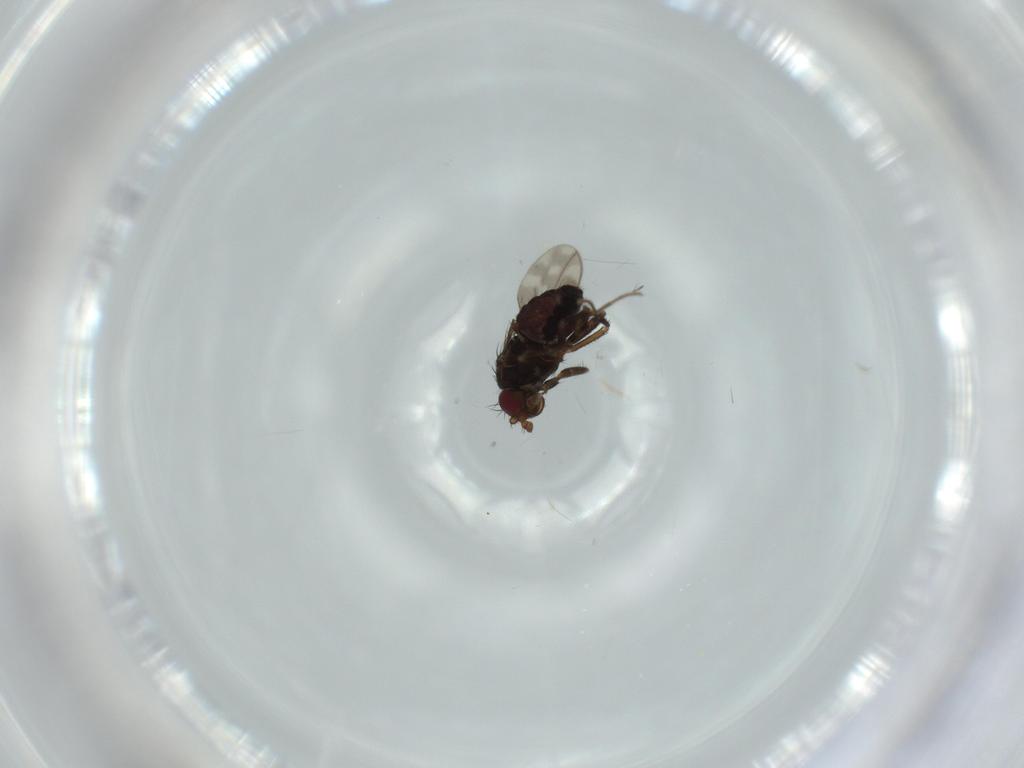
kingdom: Animalia
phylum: Arthropoda
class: Insecta
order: Diptera
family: Sphaeroceridae
